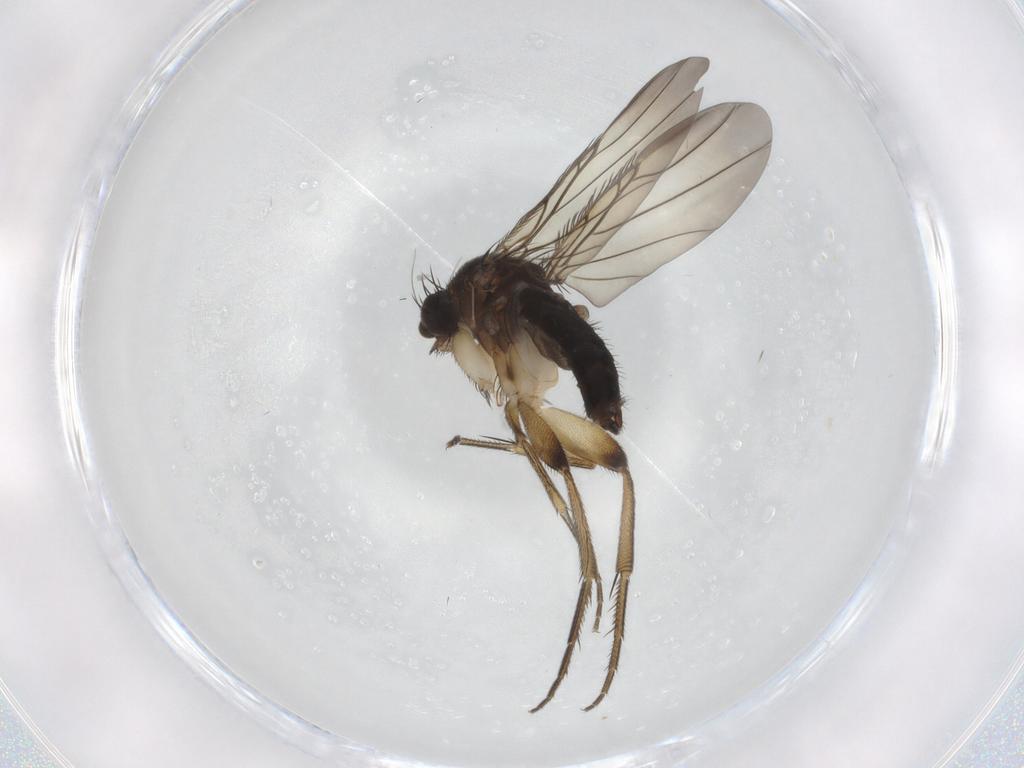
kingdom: Animalia
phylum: Arthropoda
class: Insecta
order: Diptera
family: Phoridae
